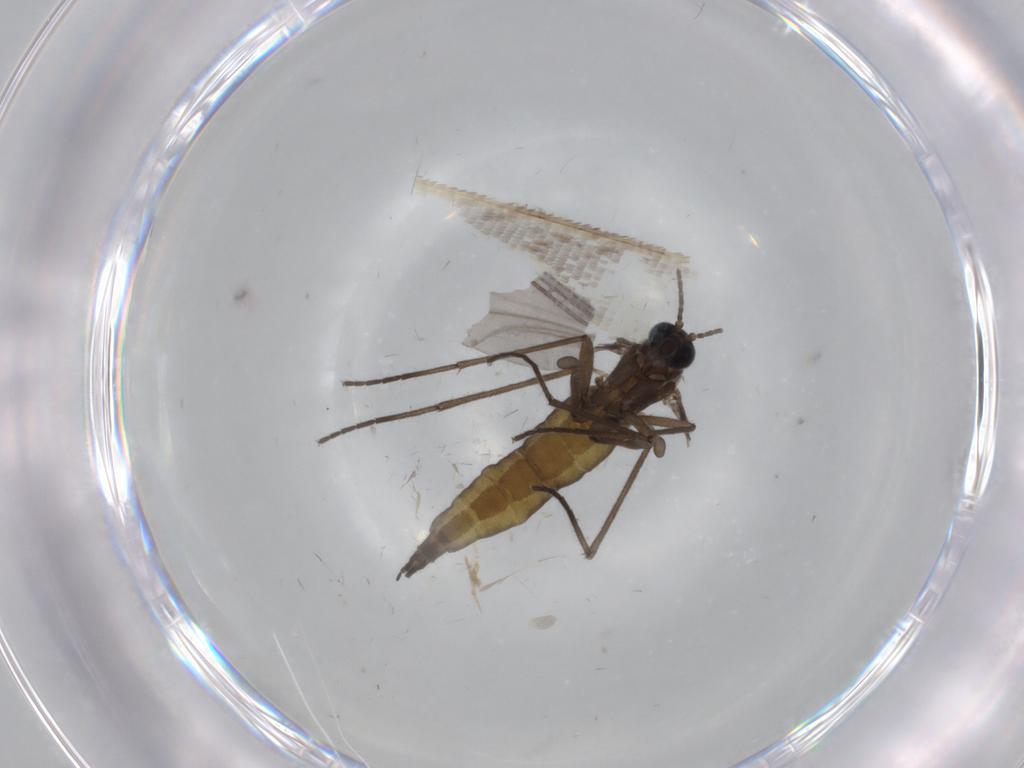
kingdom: Animalia
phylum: Arthropoda
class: Insecta
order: Diptera
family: Sciaridae
